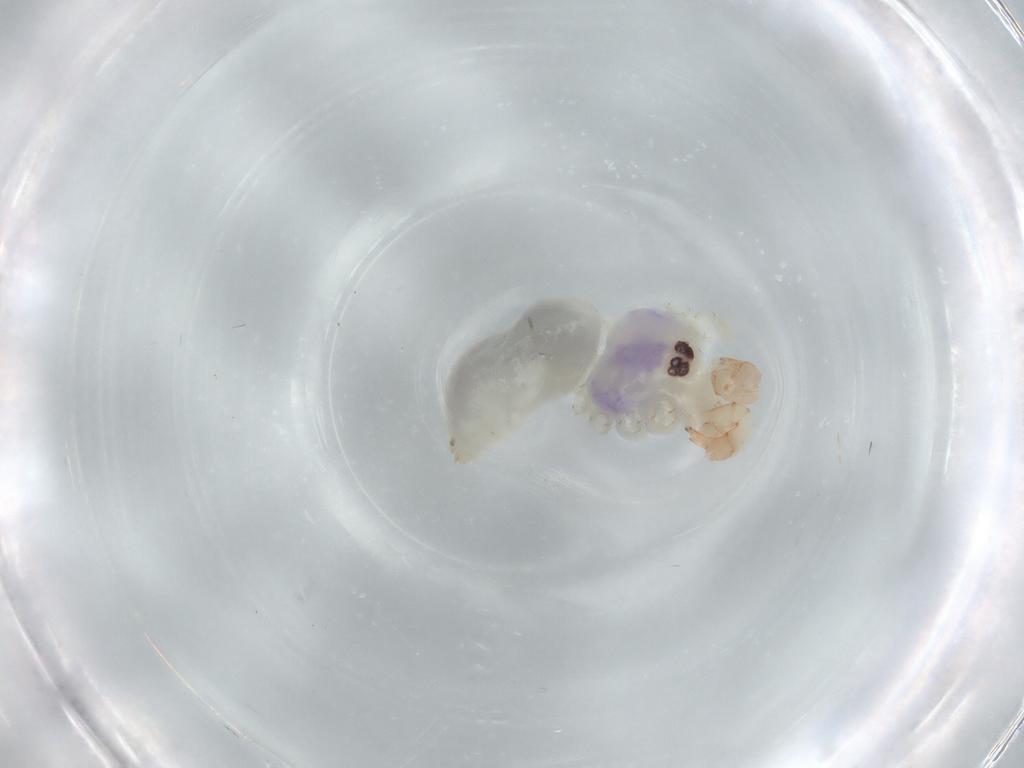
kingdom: Animalia
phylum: Arthropoda
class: Arachnida
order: Araneae
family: Pholcidae
